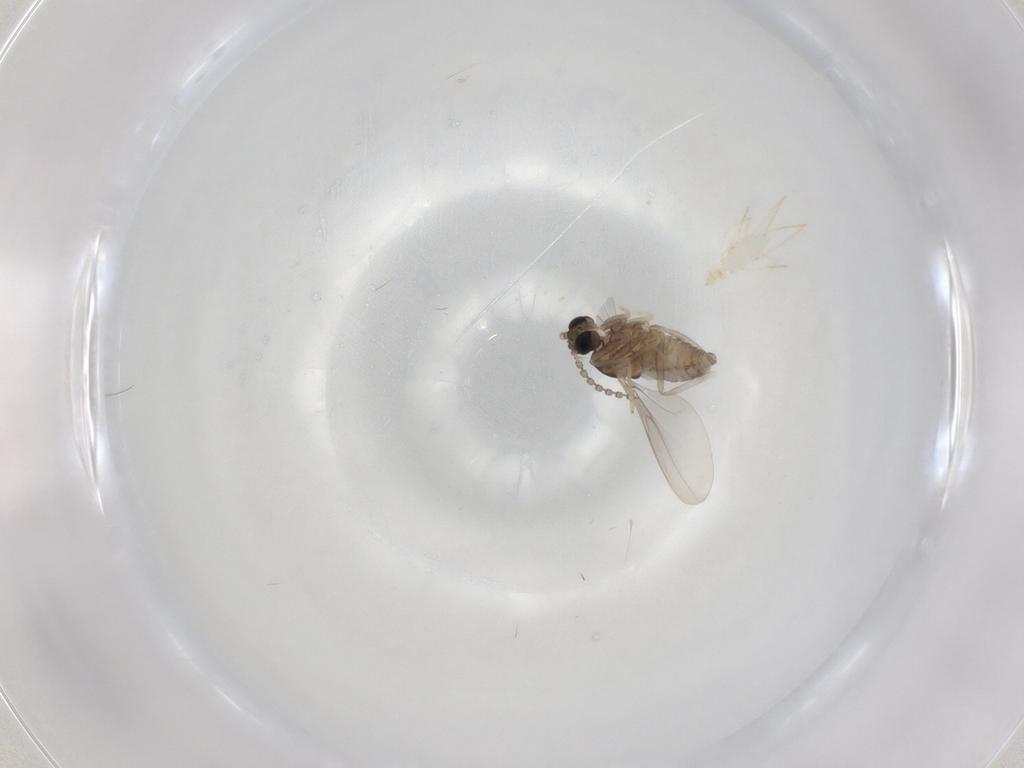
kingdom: Animalia
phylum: Arthropoda
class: Insecta
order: Diptera
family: Cecidomyiidae
